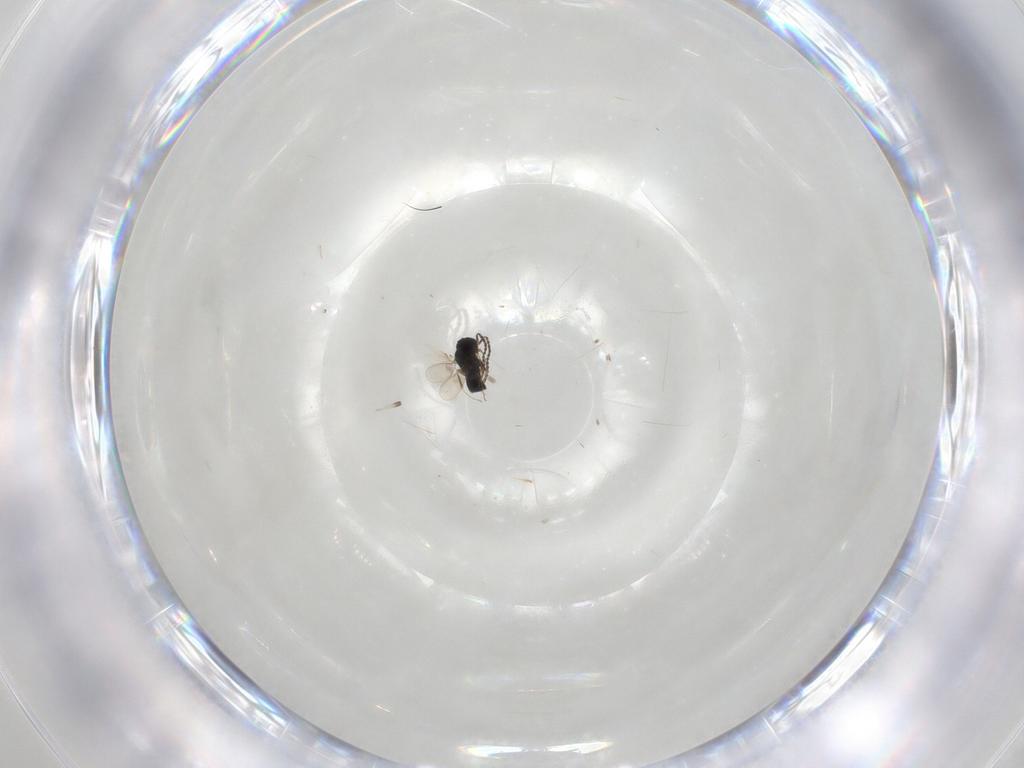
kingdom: Animalia
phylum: Arthropoda
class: Insecta
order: Hymenoptera
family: Scelionidae
